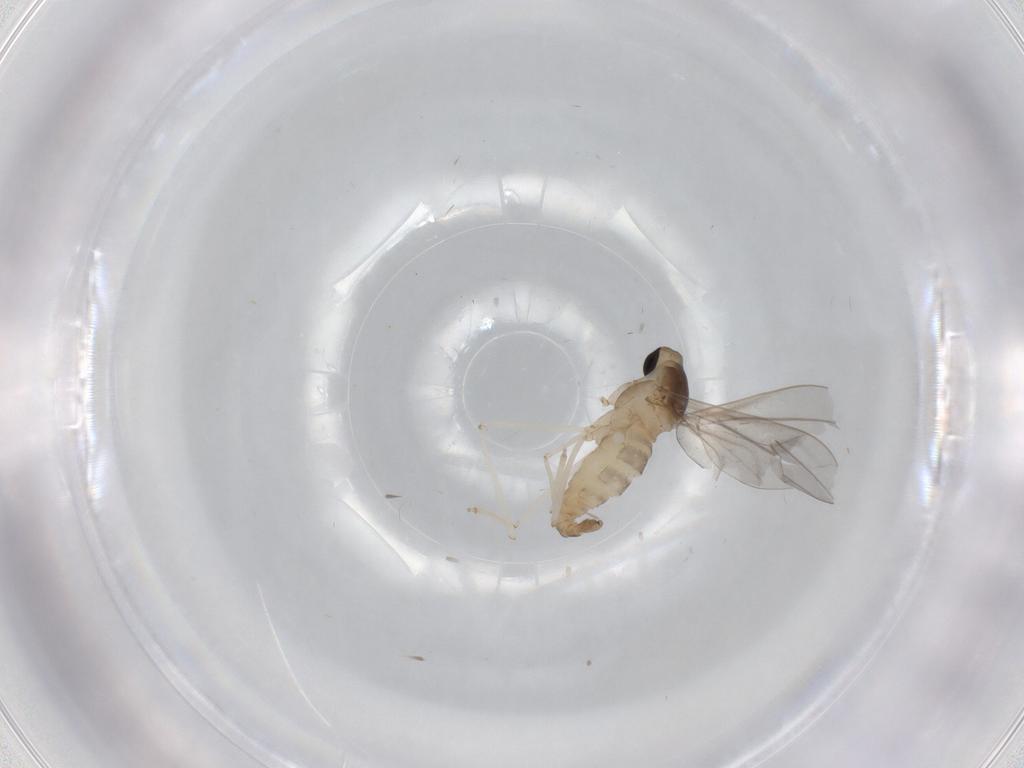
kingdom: Animalia
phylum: Arthropoda
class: Insecta
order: Diptera
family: Cecidomyiidae
